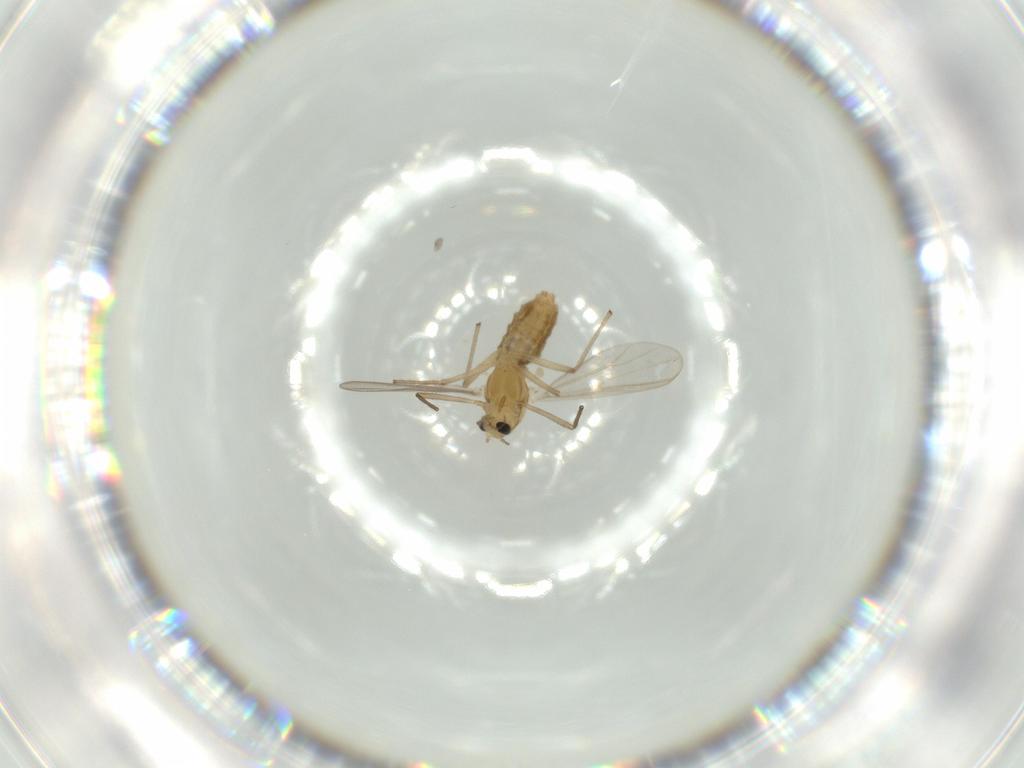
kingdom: Animalia
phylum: Arthropoda
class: Insecta
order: Diptera
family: Chironomidae
